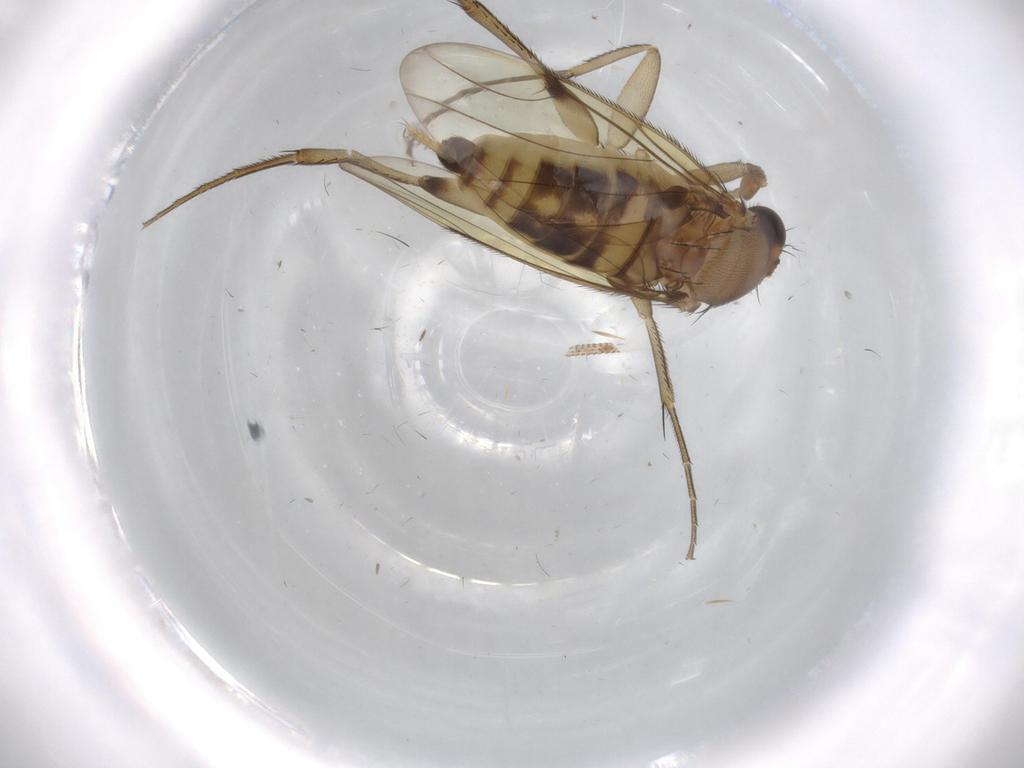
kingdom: Animalia
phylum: Arthropoda
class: Insecta
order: Diptera
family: Phoridae
